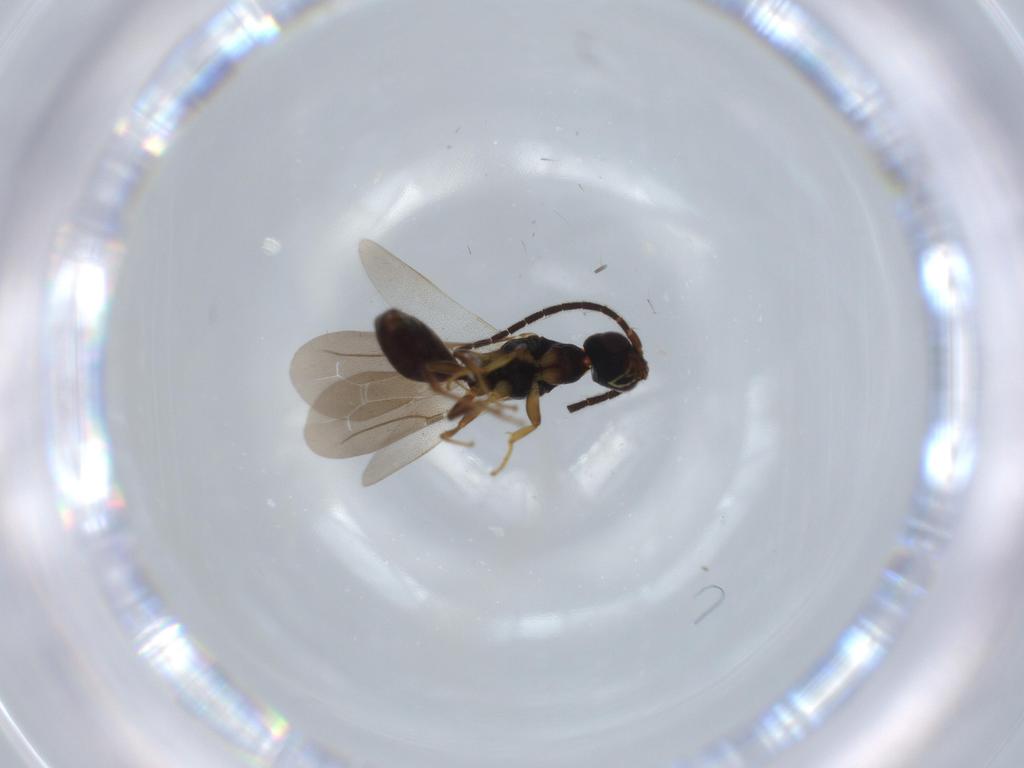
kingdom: Animalia
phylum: Arthropoda
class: Insecta
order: Hymenoptera
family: Bethylidae
